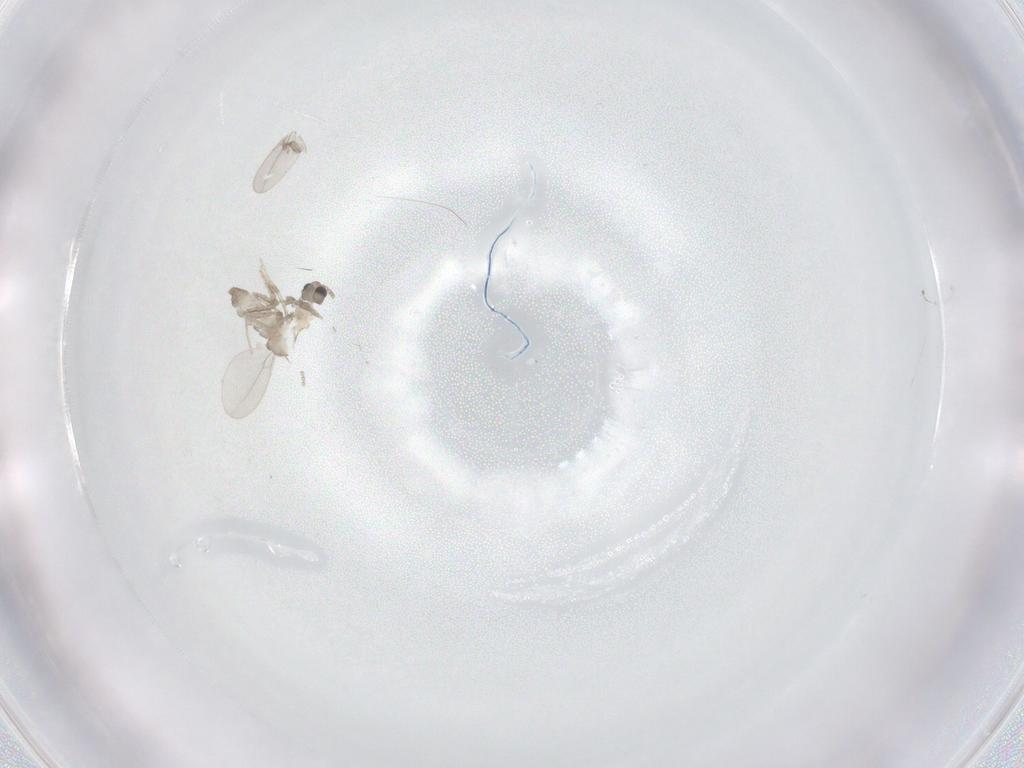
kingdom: Animalia
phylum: Arthropoda
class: Insecta
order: Diptera
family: Cecidomyiidae
